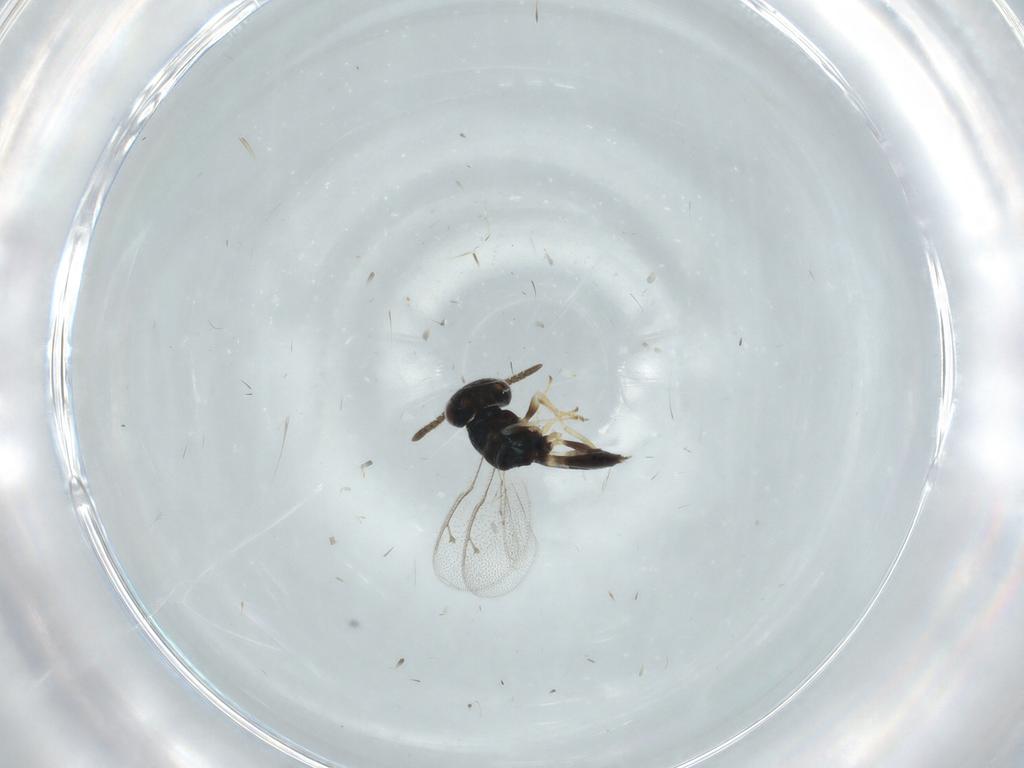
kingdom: Animalia
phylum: Arthropoda
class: Insecta
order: Hymenoptera
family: Pteromalidae
